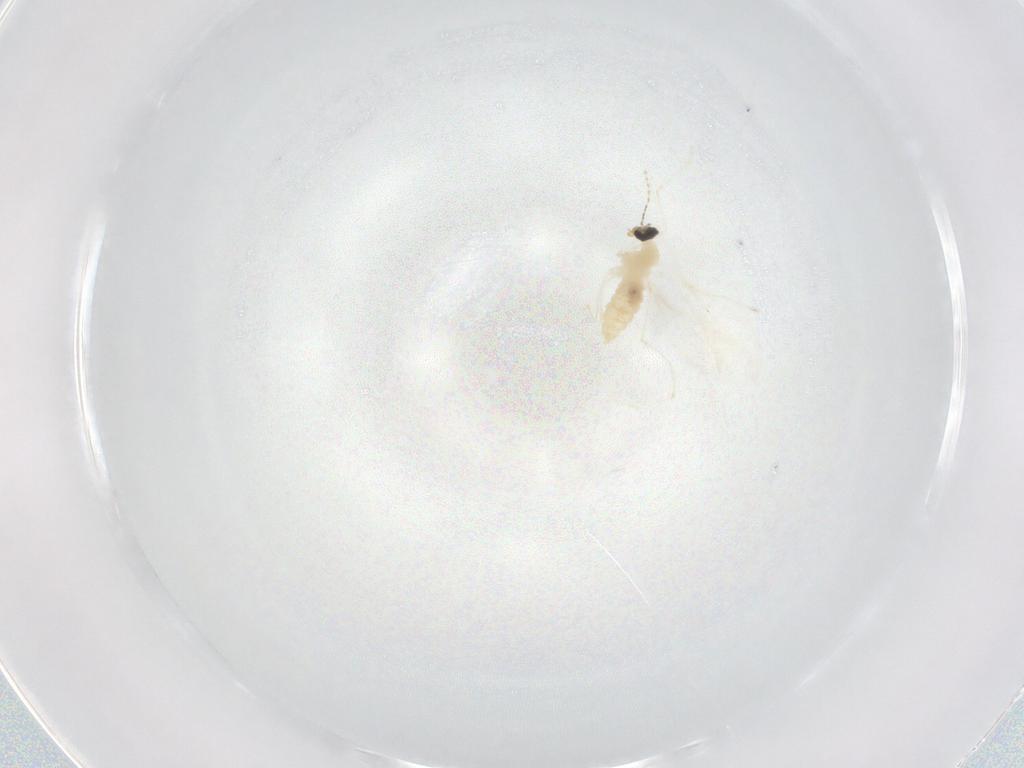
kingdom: Animalia
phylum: Arthropoda
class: Insecta
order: Diptera
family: Cecidomyiidae
